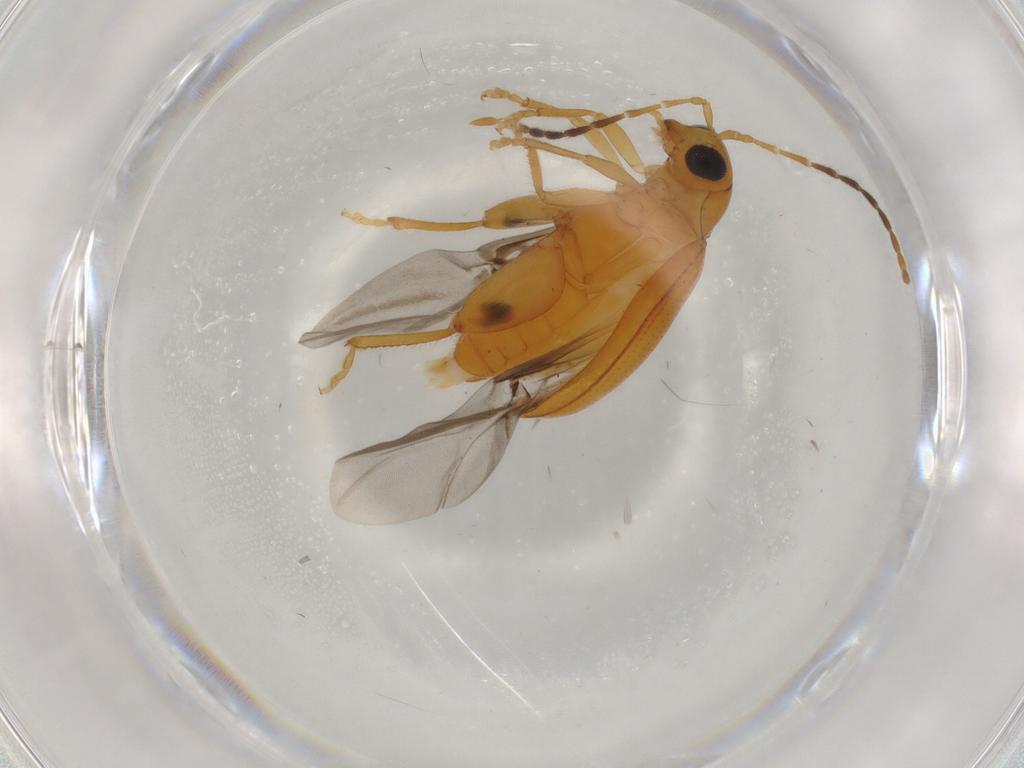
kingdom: Animalia
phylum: Arthropoda
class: Insecta
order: Coleoptera
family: Chrysomelidae
